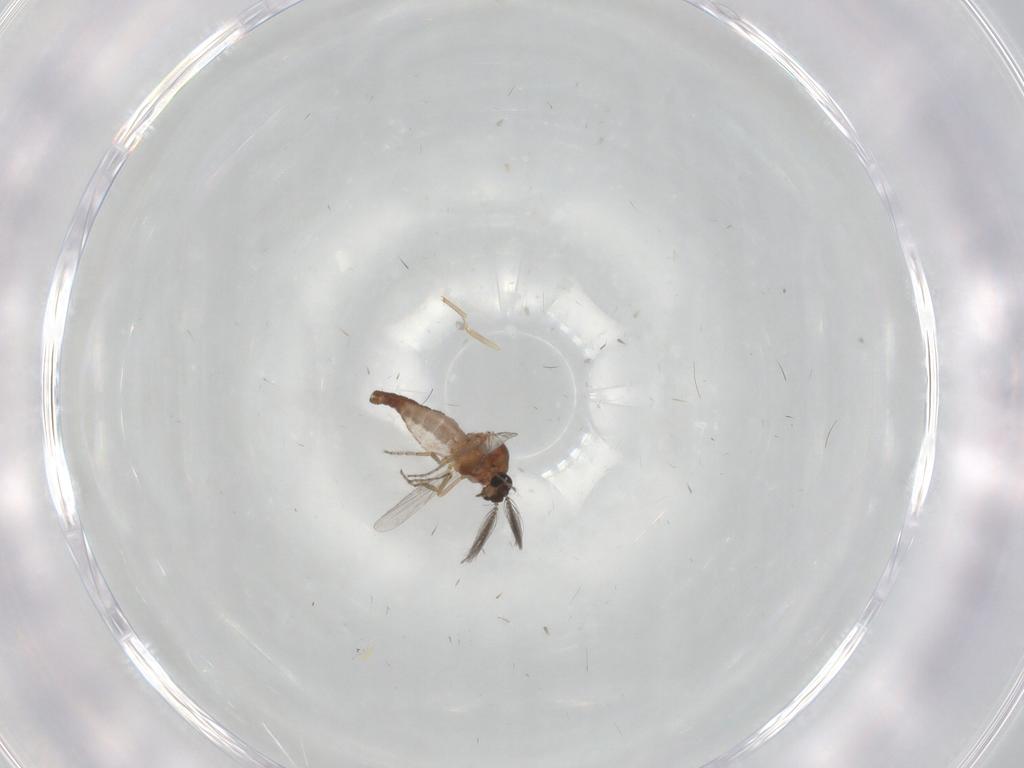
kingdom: Animalia
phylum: Arthropoda
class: Insecta
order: Diptera
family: Ceratopogonidae
